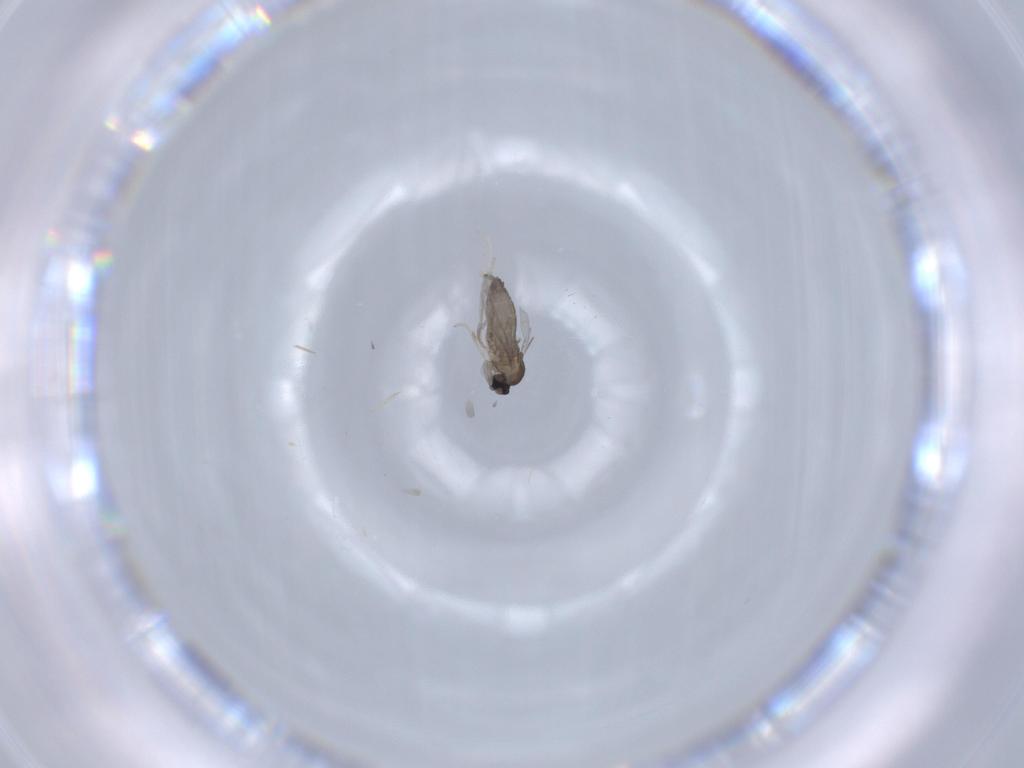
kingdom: Animalia
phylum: Arthropoda
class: Insecta
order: Diptera
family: Cecidomyiidae
